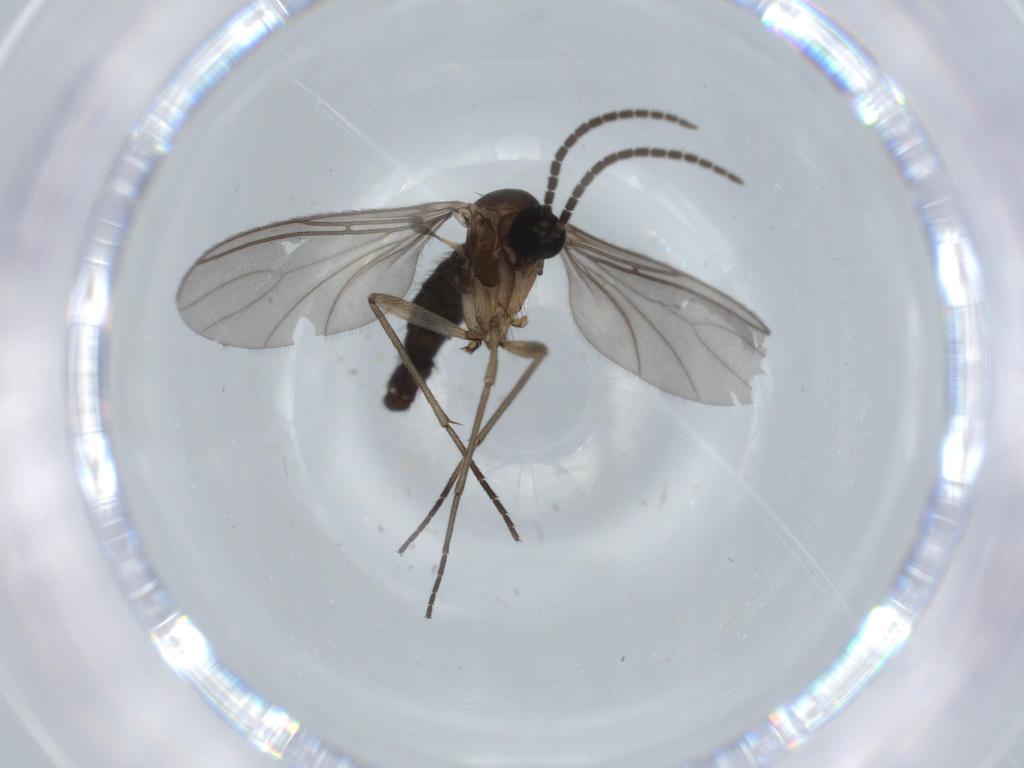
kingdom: Animalia
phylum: Arthropoda
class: Insecta
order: Diptera
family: Sciaridae
